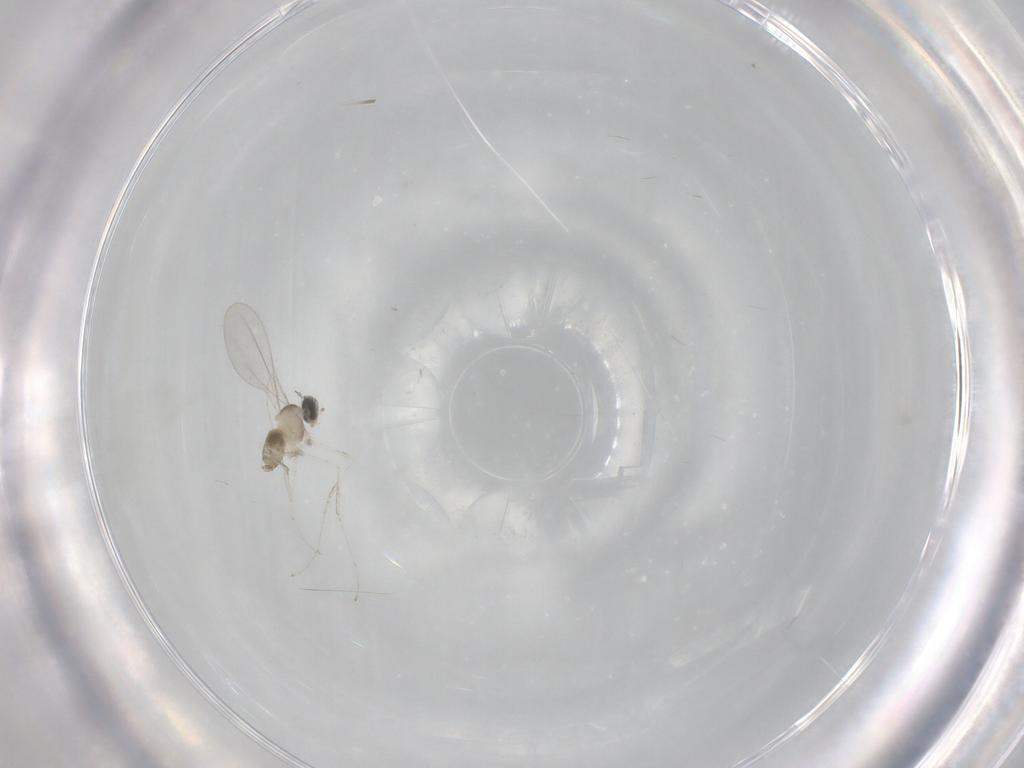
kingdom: Animalia
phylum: Arthropoda
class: Insecta
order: Diptera
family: Cecidomyiidae
